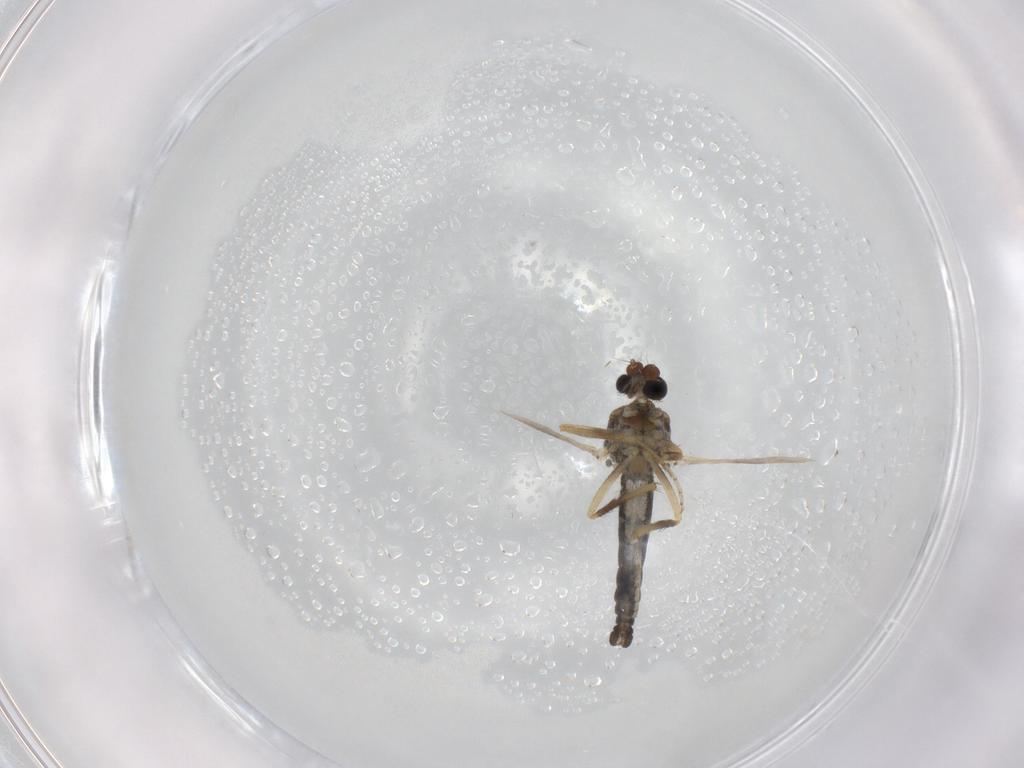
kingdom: Animalia
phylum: Arthropoda
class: Insecta
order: Diptera
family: Ceratopogonidae
